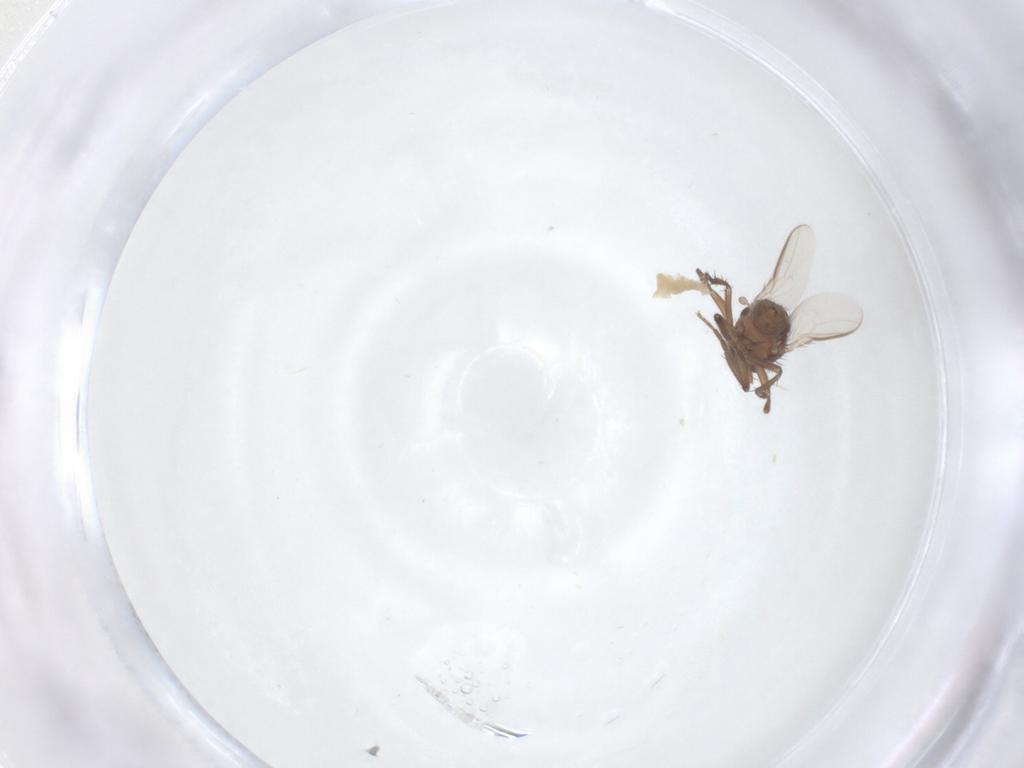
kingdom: Animalia
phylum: Arthropoda
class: Insecta
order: Diptera
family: Sphaeroceridae
